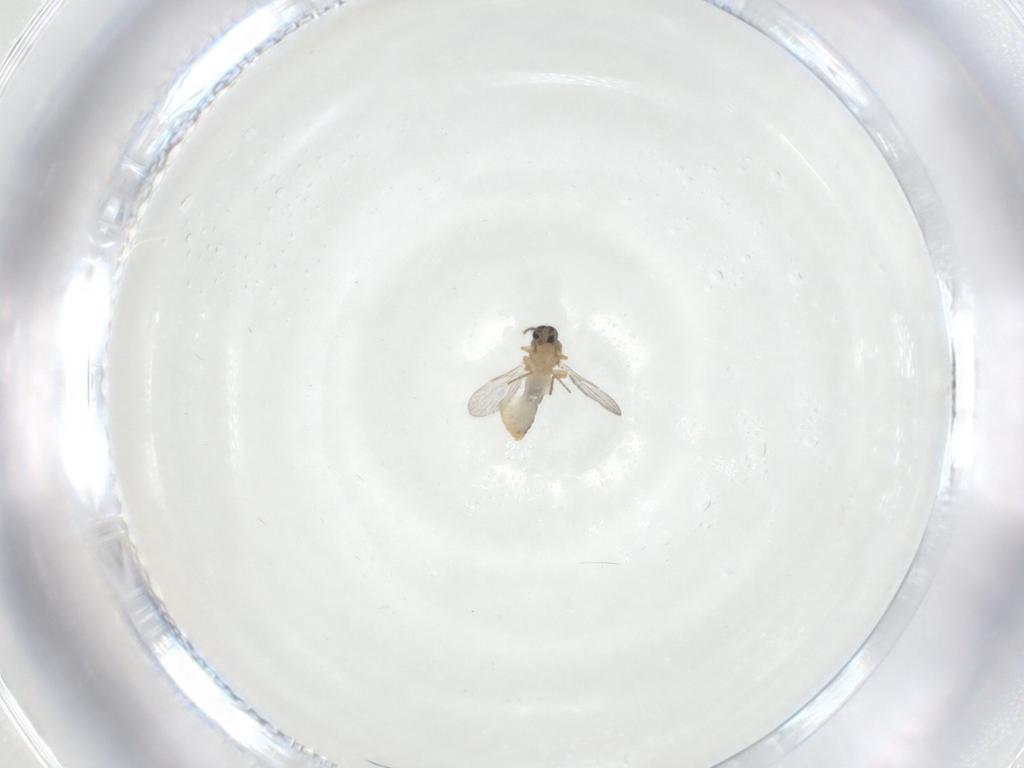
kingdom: Animalia
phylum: Arthropoda
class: Insecta
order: Diptera
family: Ceratopogonidae
